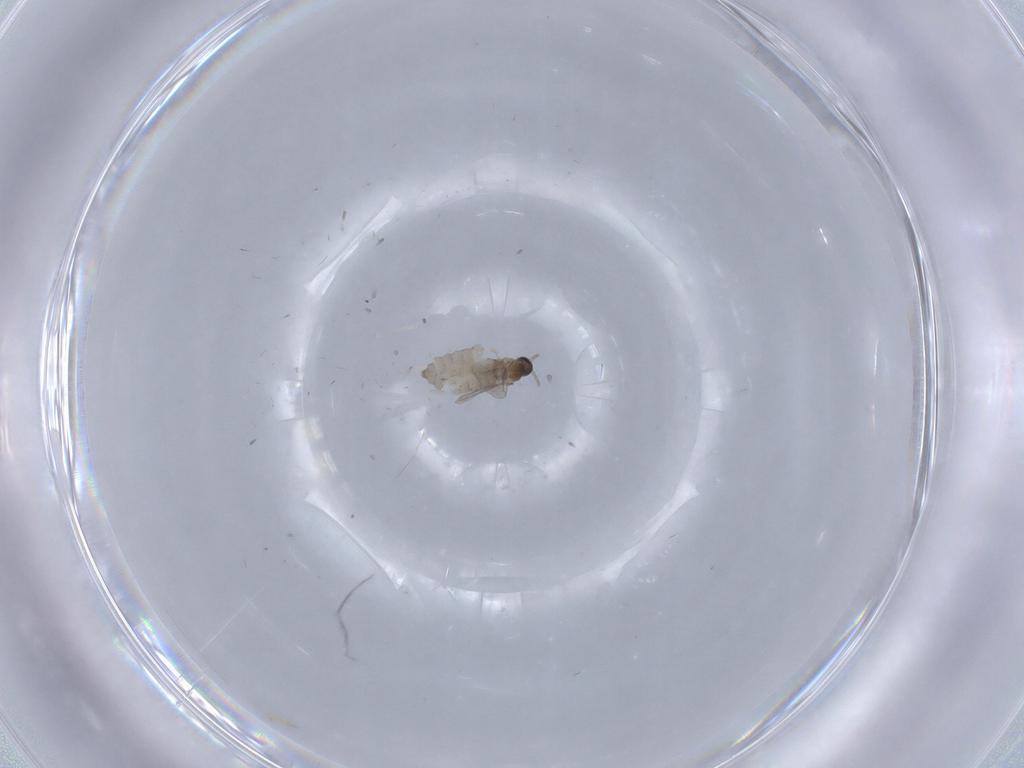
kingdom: Animalia
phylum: Arthropoda
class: Insecta
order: Diptera
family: Cecidomyiidae
